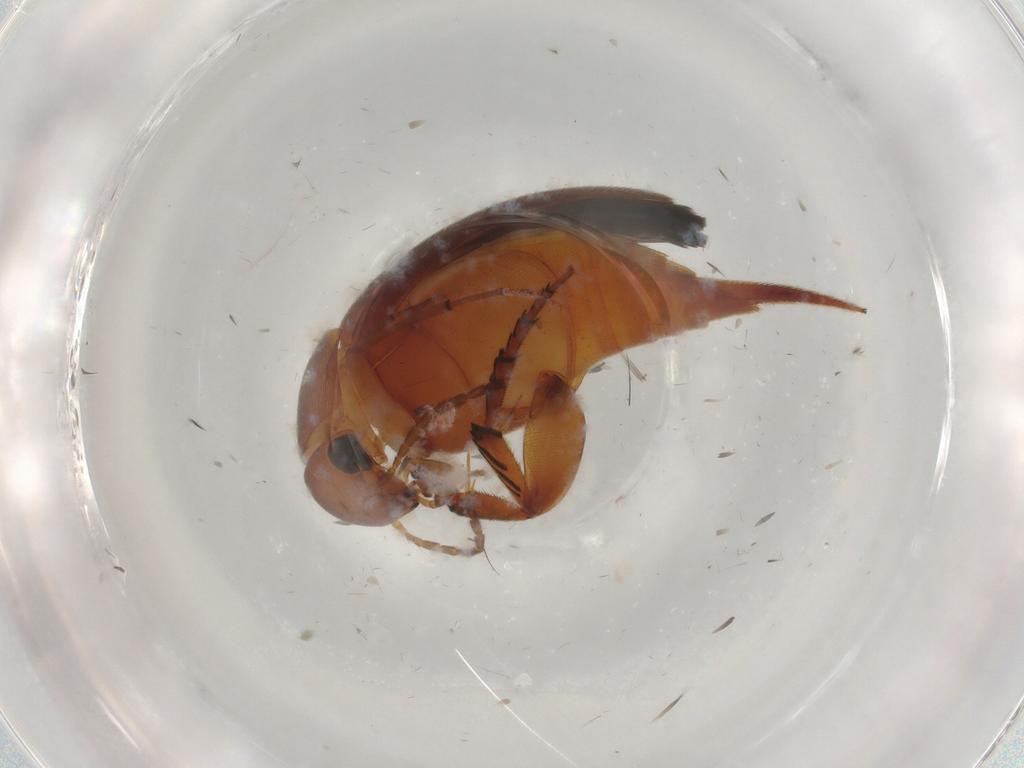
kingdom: Animalia
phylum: Arthropoda
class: Insecta
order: Coleoptera
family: Mordellidae
